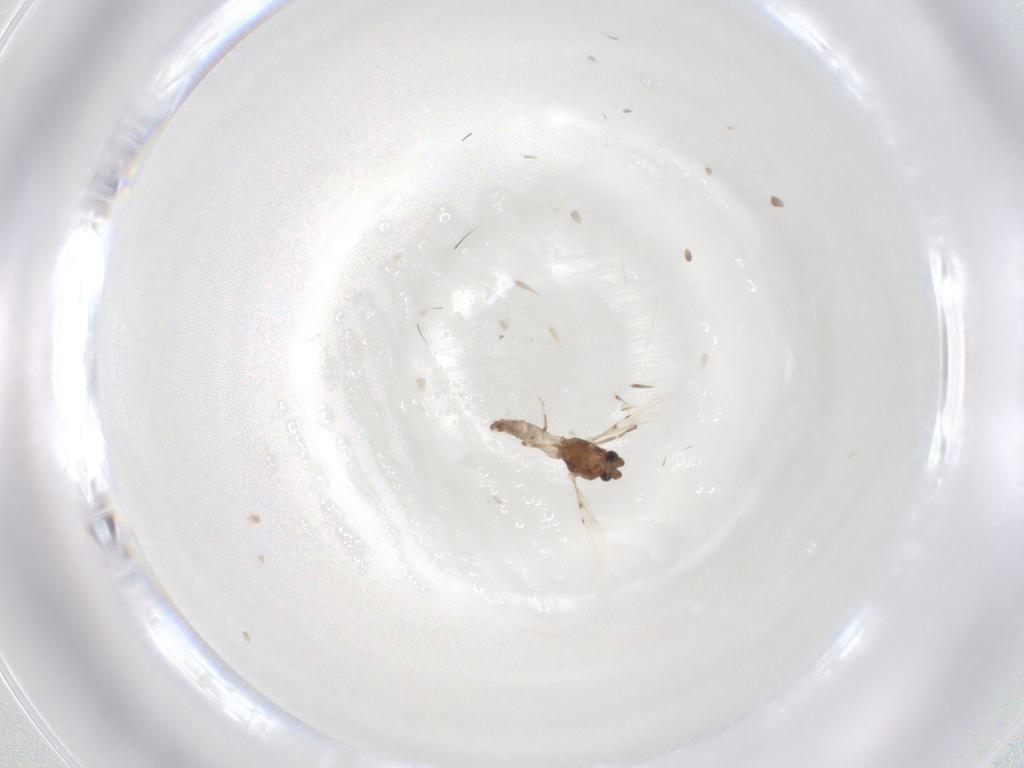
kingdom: Animalia
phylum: Arthropoda
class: Insecta
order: Diptera
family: Ceratopogonidae
